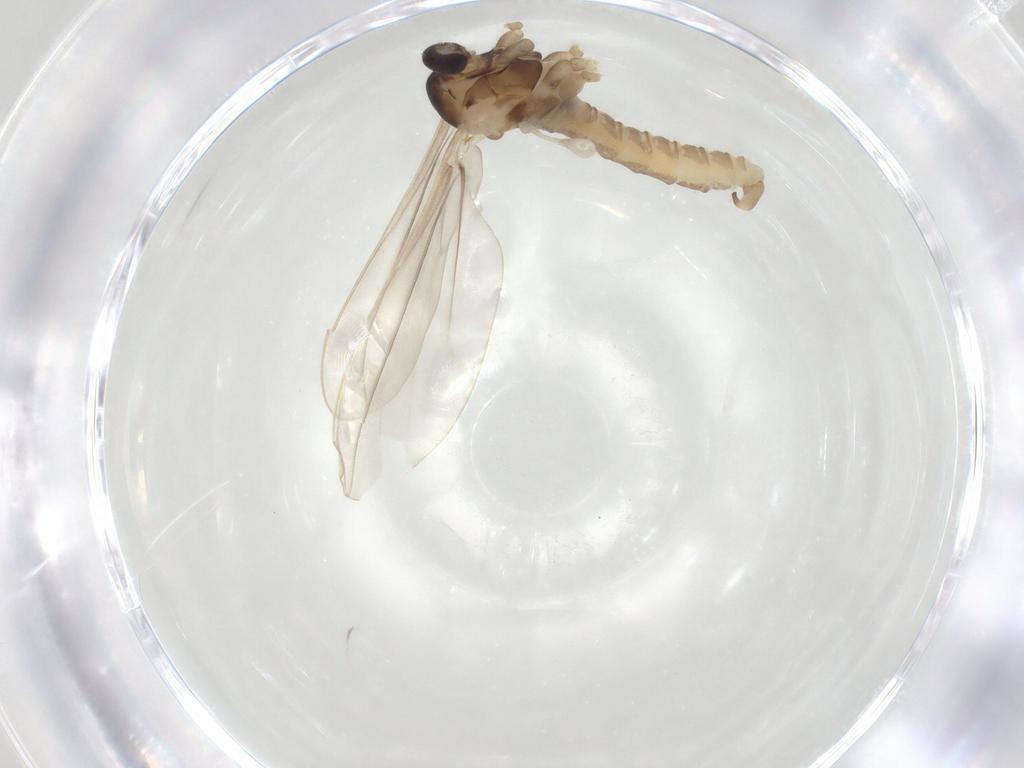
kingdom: Animalia
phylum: Arthropoda
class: Insecta
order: Diptera
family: Cecidomyiidae
